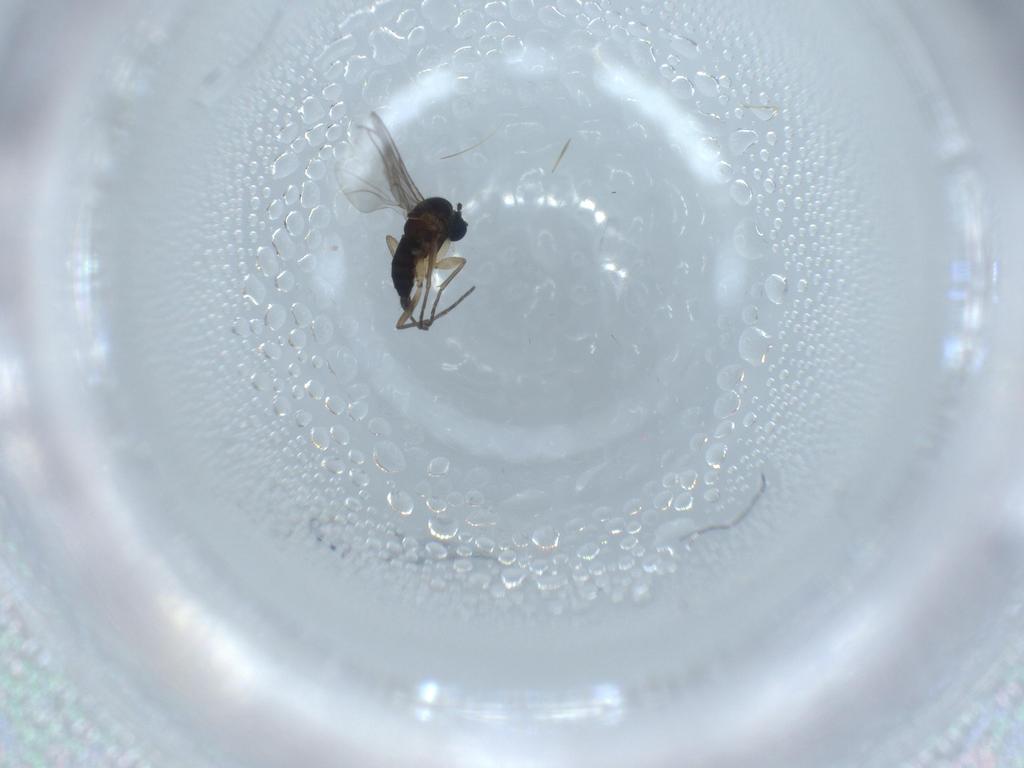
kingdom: Animalia
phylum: Arthropoda
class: Insecta
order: Diptera
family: Sciaridae
